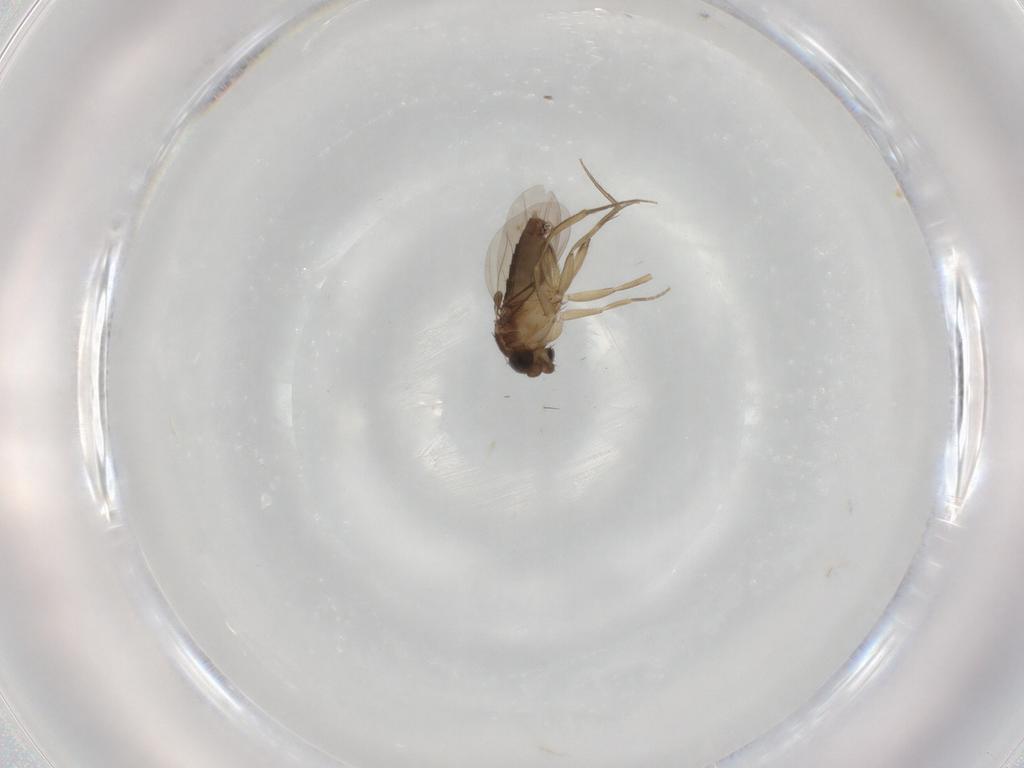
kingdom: Animalia
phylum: Arthropoda
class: Insecta
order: Diptera
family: Phoridae
